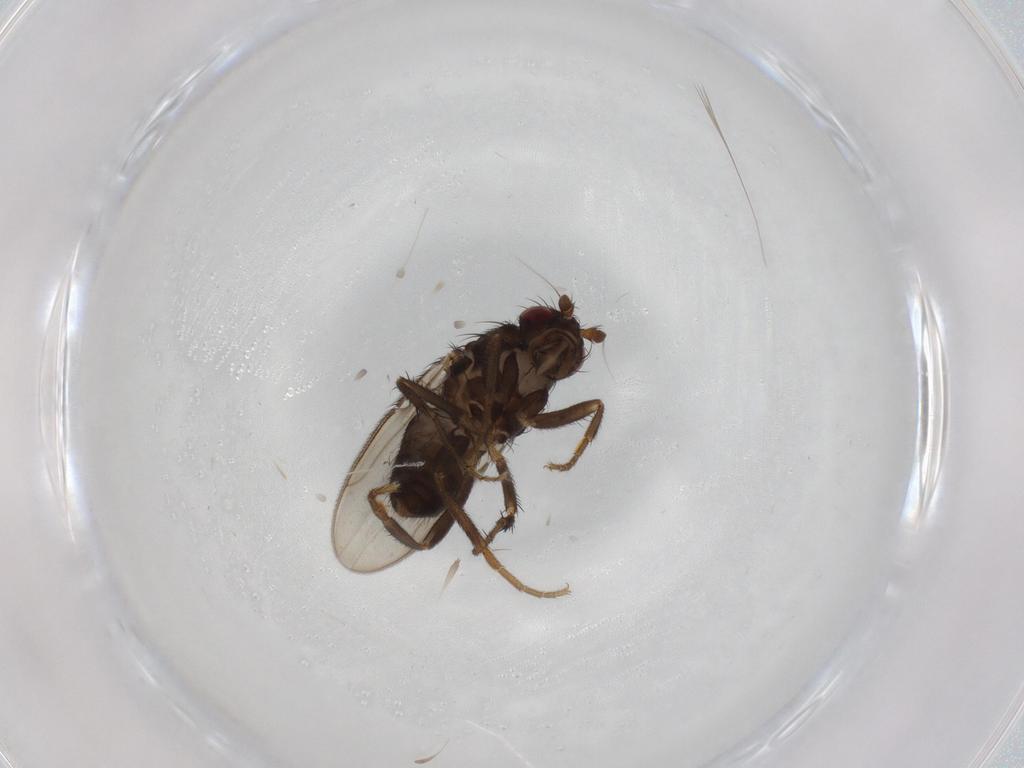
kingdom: Animalia
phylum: Arthropoda
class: Insecta
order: Diptera
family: Sphaeroceridae
